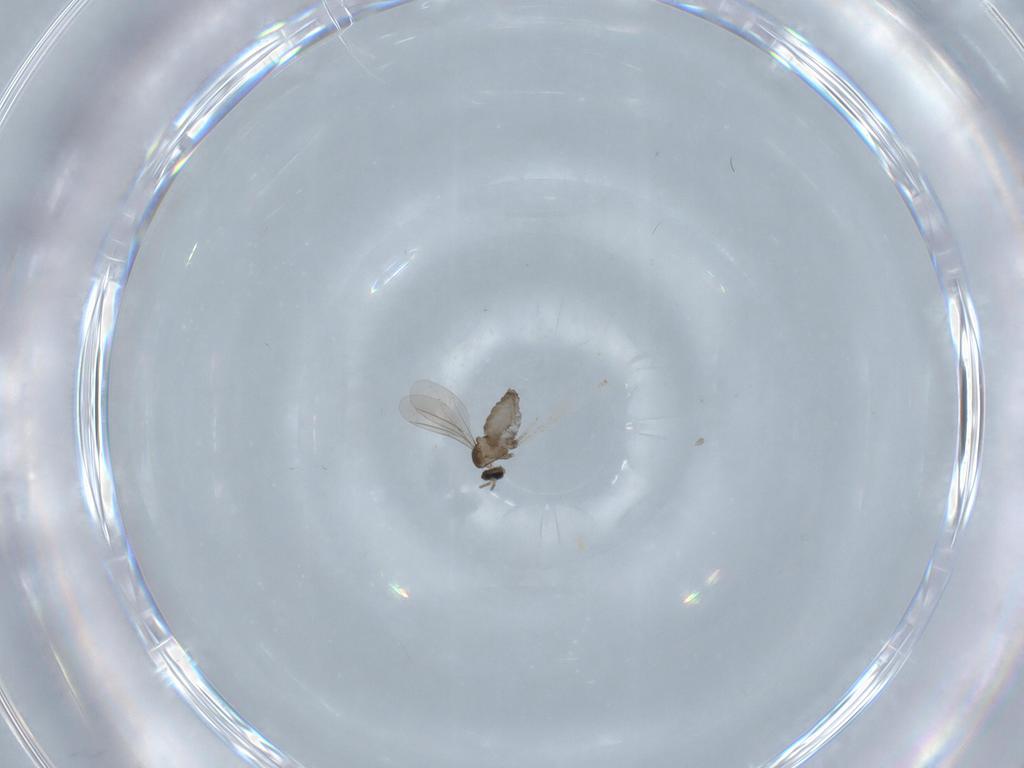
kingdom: Animalia
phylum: Arthropoda
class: Insecta
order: Diptera
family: Cecidomyiidae
